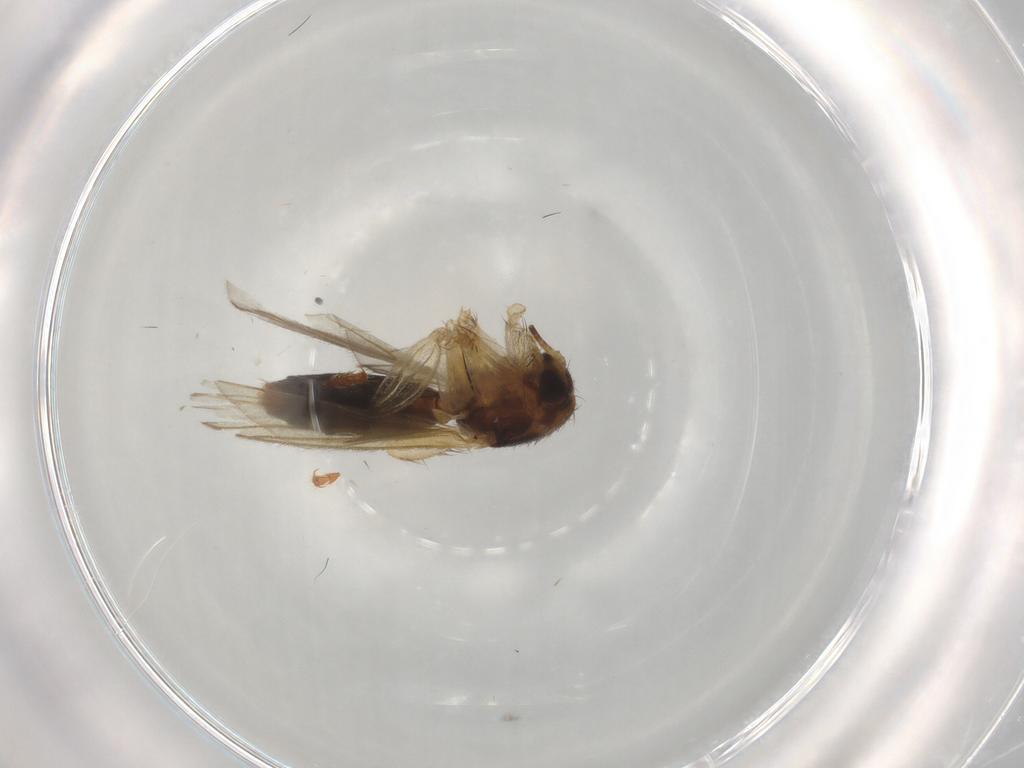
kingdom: Animalia
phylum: Arthropoda
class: Insecta
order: Diptera
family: Mycetophilidae
